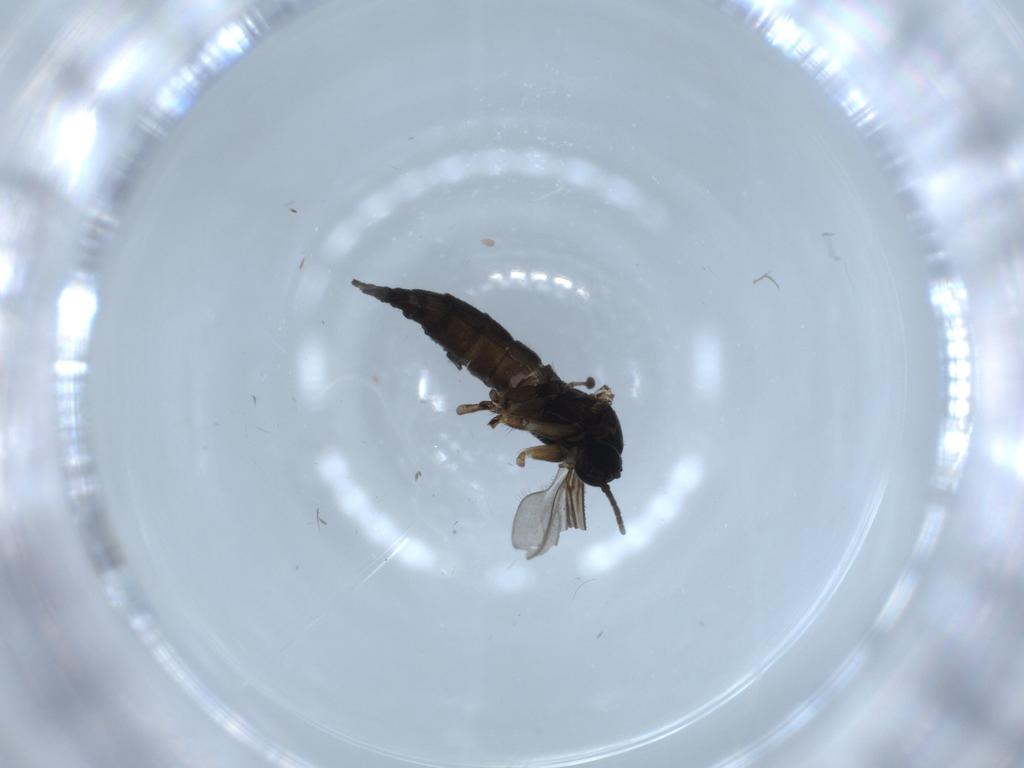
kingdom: Animalia
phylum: Arthropoda
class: Insecta
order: Diptera
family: Sciaridae
